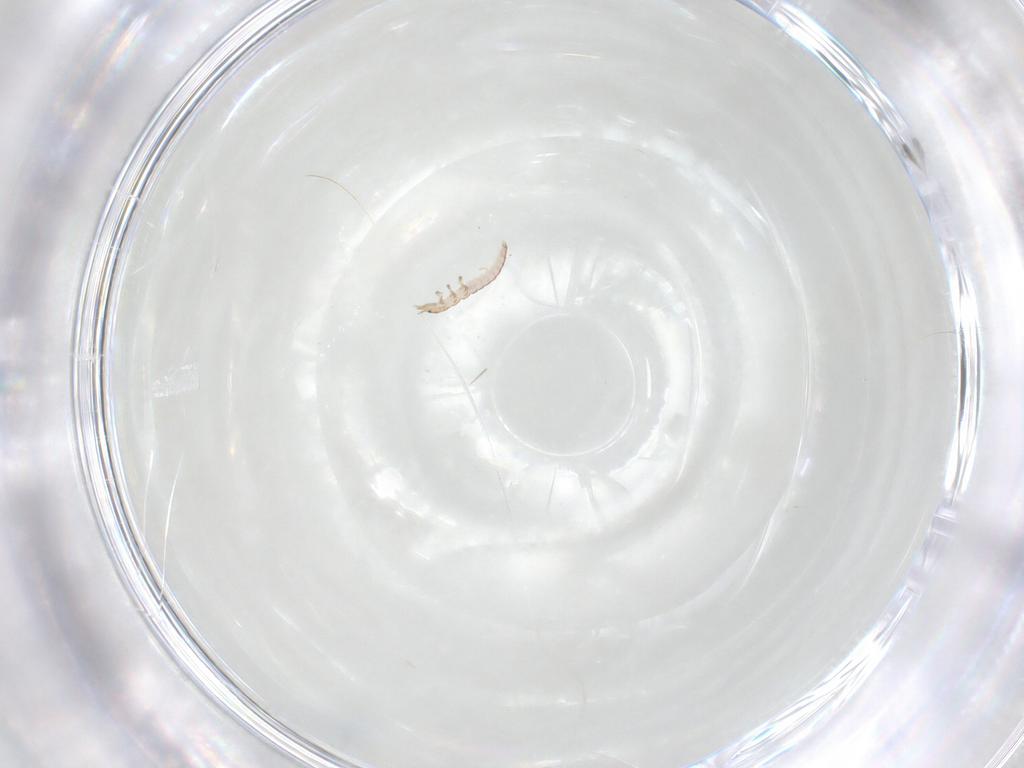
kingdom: Animalia
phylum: Arthropoda
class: Insecta
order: Neuroptera
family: Mantispidae
